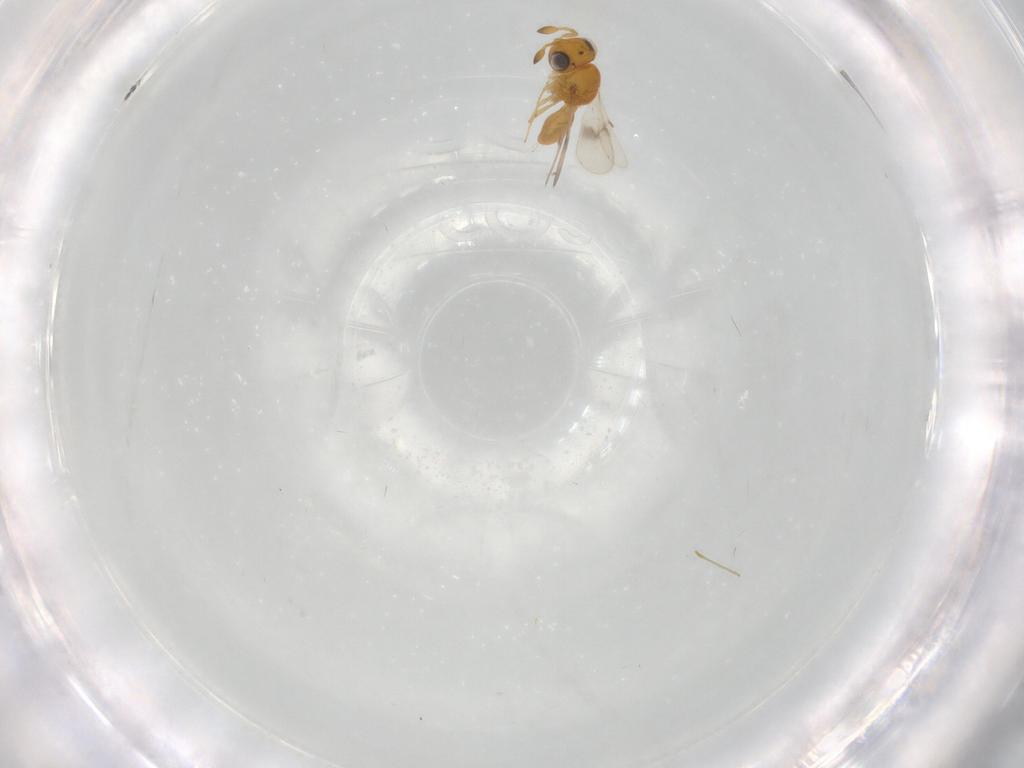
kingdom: Animalia
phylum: Arthropoda
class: Insecta
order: Hymenoptera
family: Scelionidae
